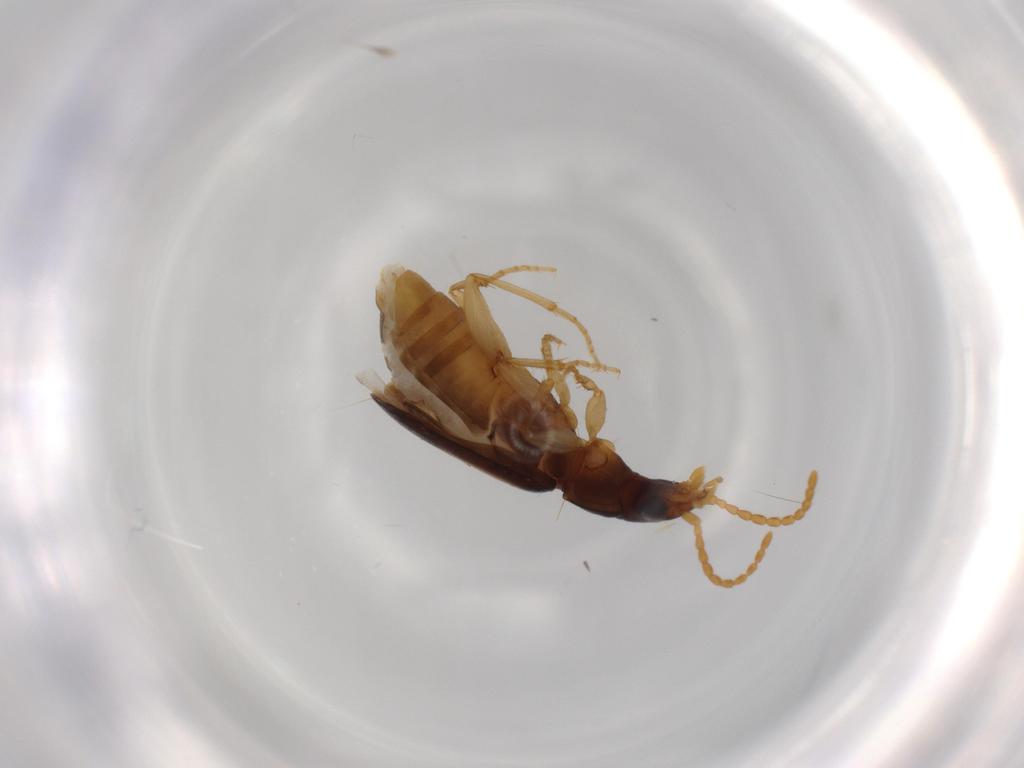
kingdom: Animalia
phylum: Arthropoda
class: Insecta
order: Coleoptera
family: Carabidae
